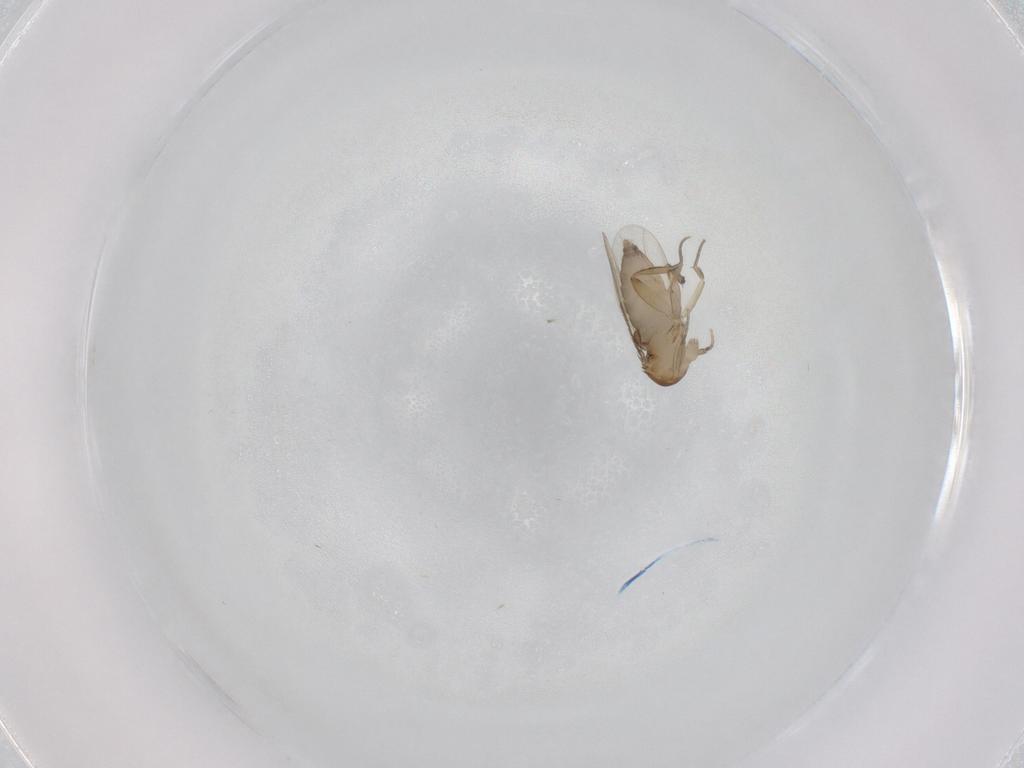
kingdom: Animalia
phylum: Arthropoda
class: Insecta
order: Diptera
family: Phoridae
